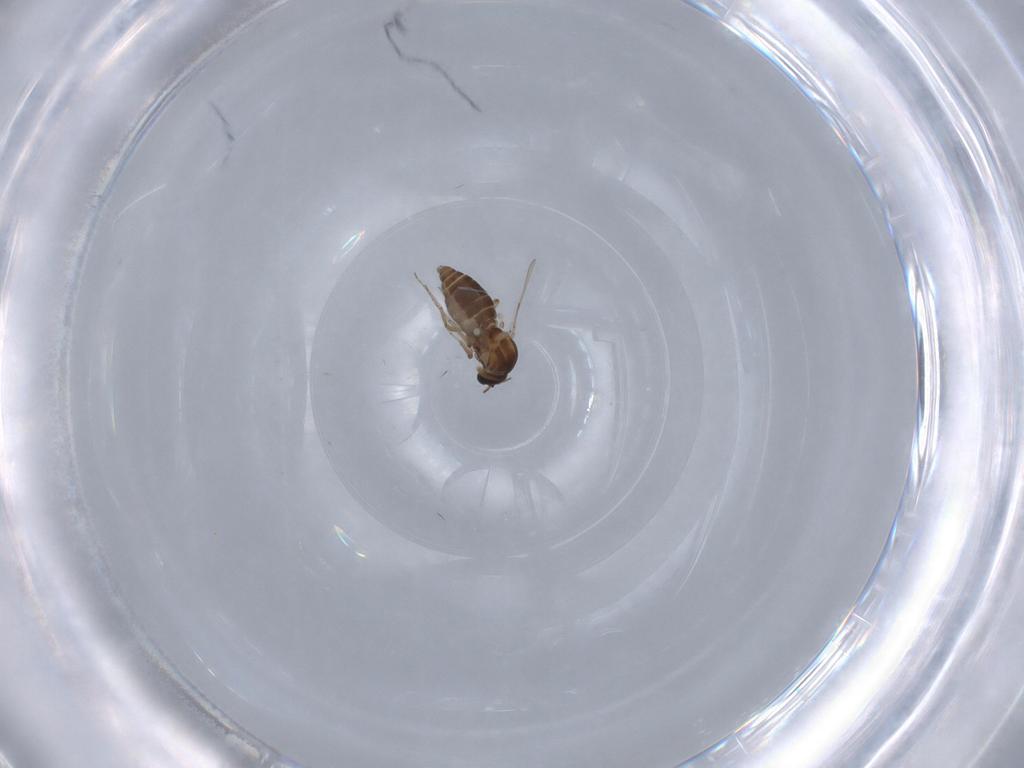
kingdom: Animalia
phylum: Arthropoda
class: Insecta
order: Diptera
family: Ceratopogonidae
